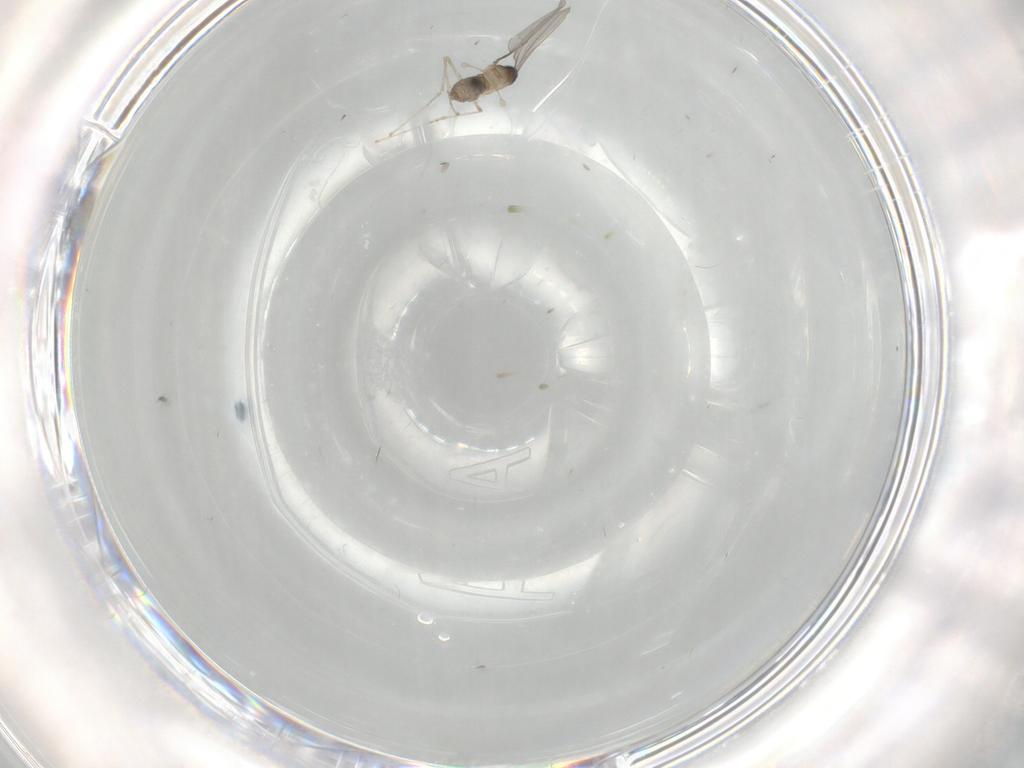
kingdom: Animalia
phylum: Arthropoda
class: Insecta
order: Diptera
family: Cecidomyiidae
